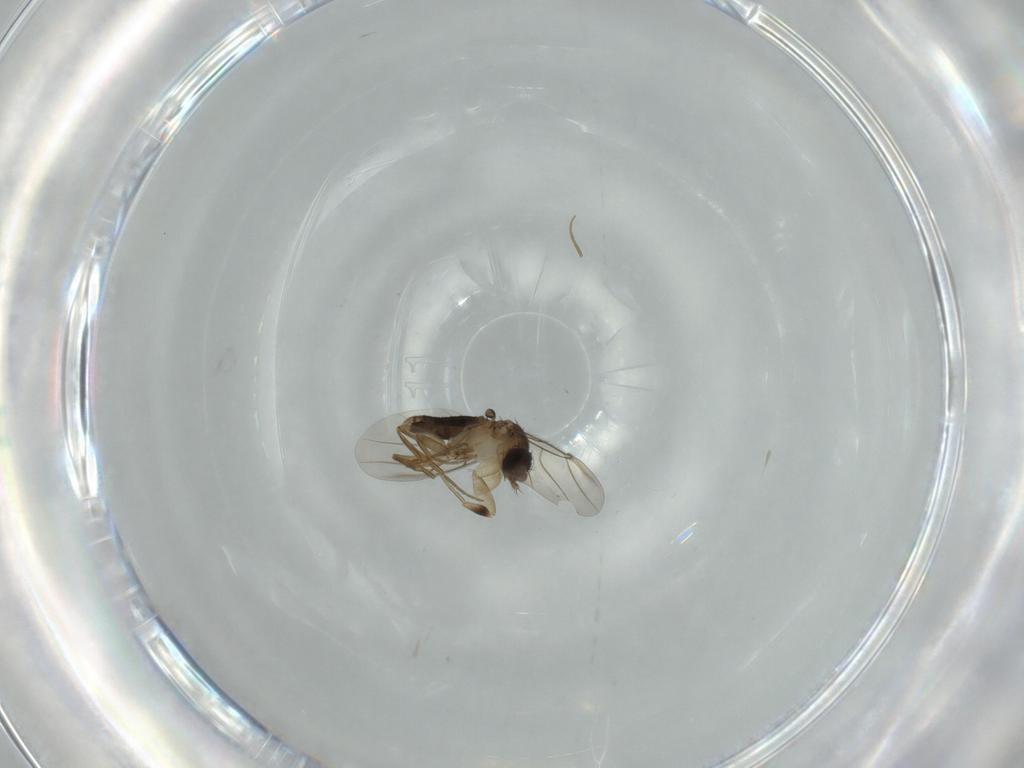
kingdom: Animalia
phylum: Arthropoda
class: Insecta
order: Diptera
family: Phoridae
